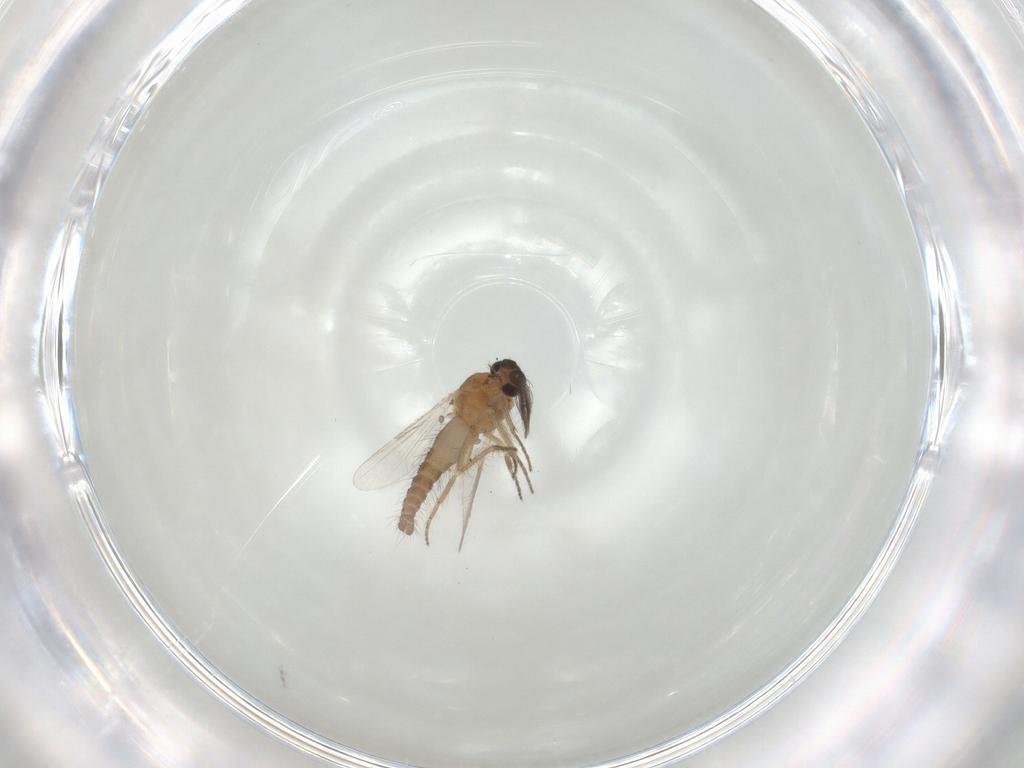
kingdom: Animalia
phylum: Arthropoda
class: Insecta
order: Diptera
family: Ceratopogonidae
